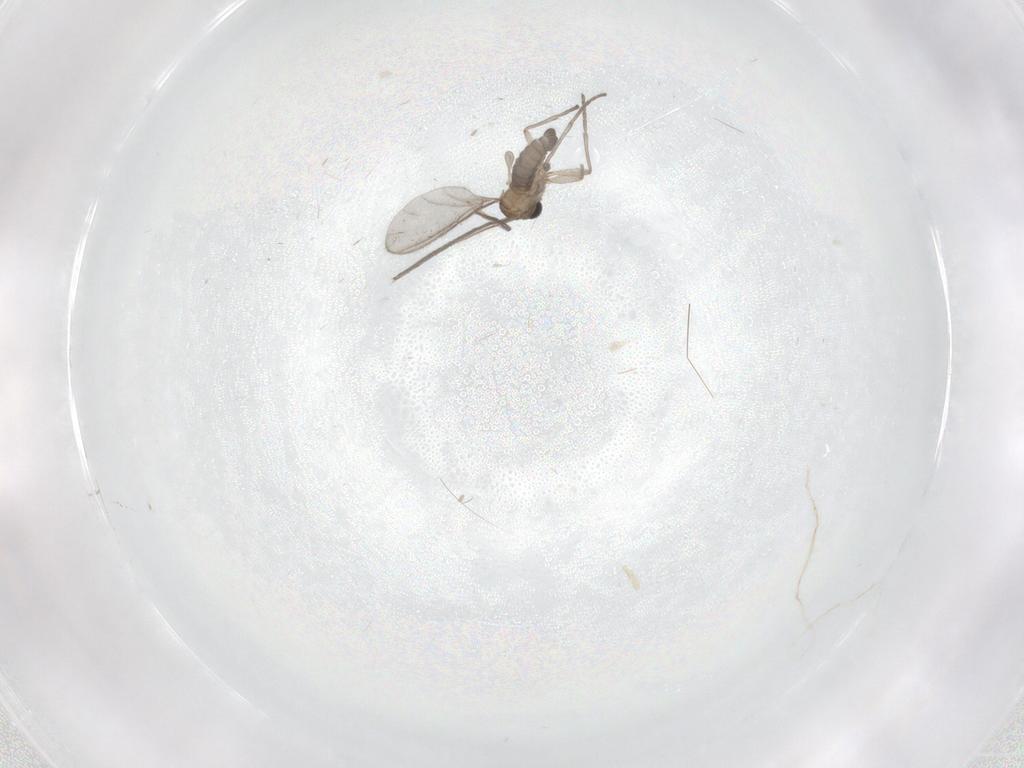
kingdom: Animalia
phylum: Arthropoda
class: Insecta
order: Diptera
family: Sciaridae
